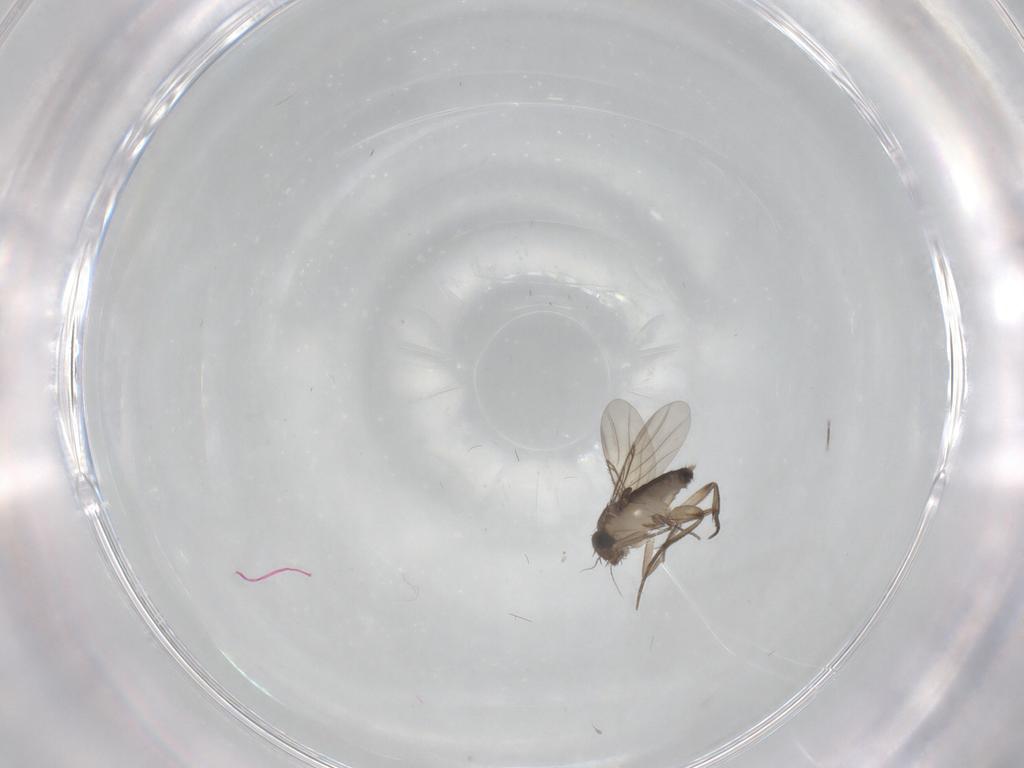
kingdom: Animalia
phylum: Arthropoda
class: Insecta
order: Diptera
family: Phoridae
